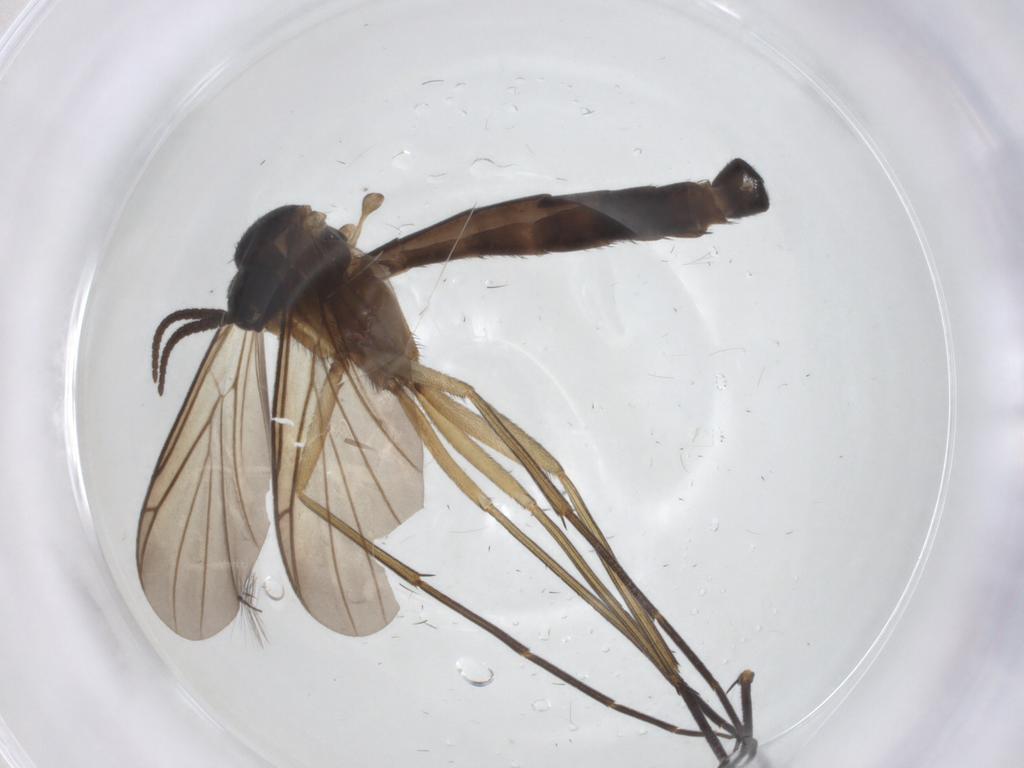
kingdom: Animalia
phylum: Arthropoda
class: Insecta
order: Diptera
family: Keroplatidae
